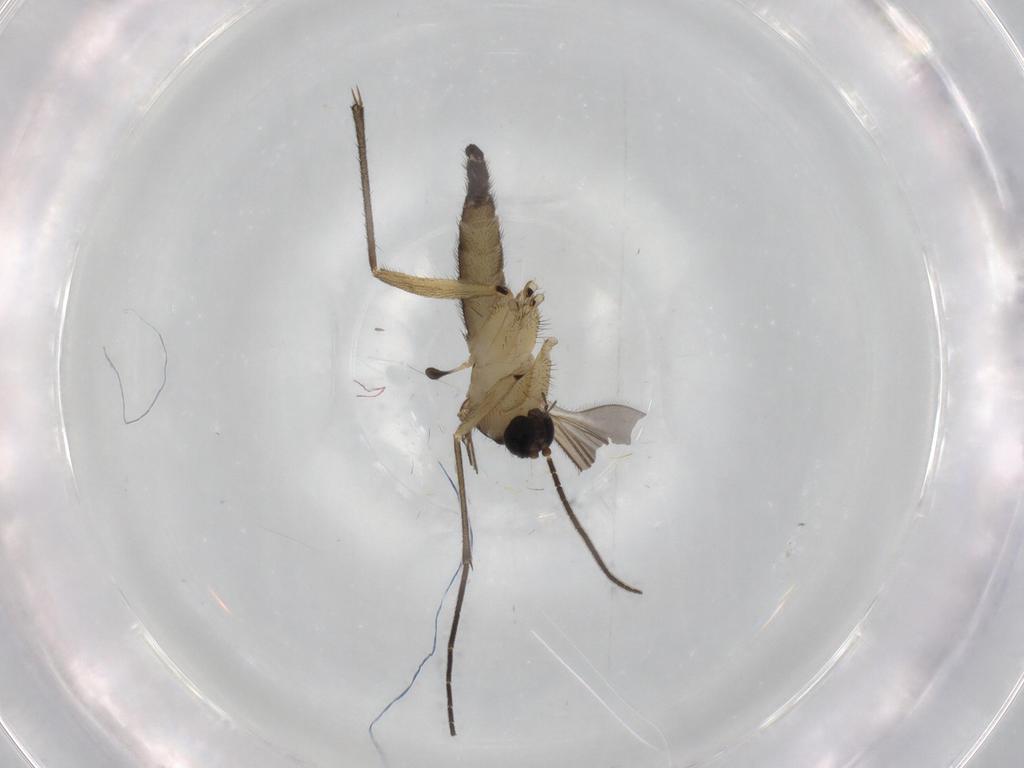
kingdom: Animalia
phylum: Arthropoda
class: Insecta
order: Diptera
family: Sciaridae
